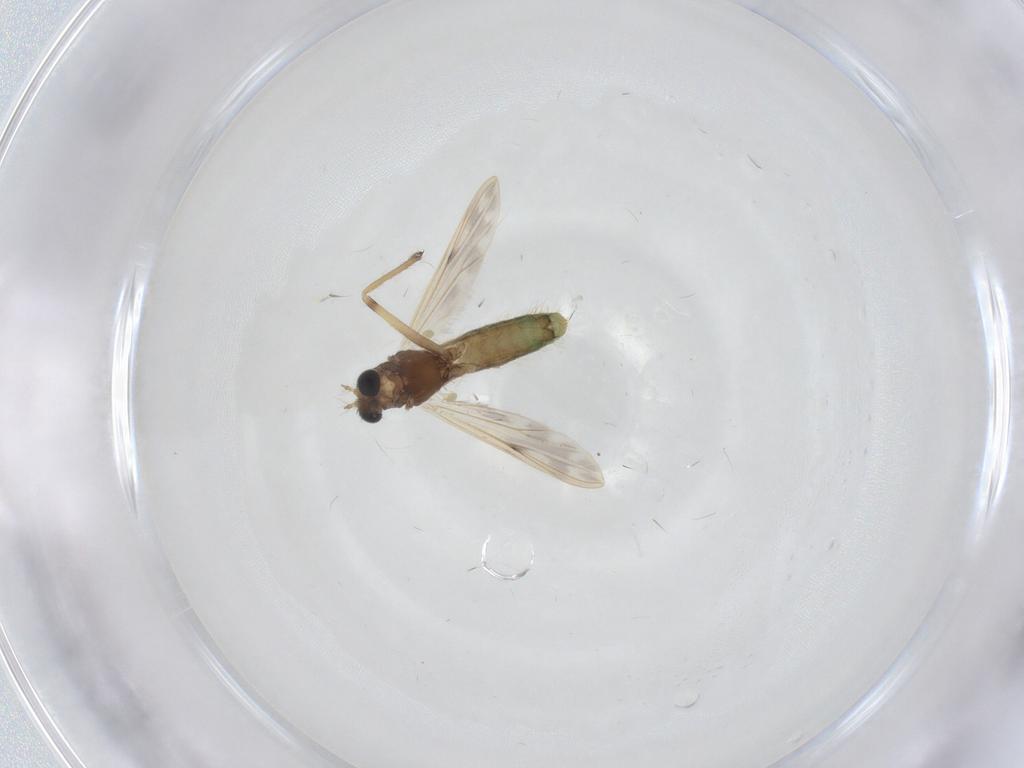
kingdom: Animalia
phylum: Arthropoda
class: Insecta
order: Diptera
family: Chironomidae
